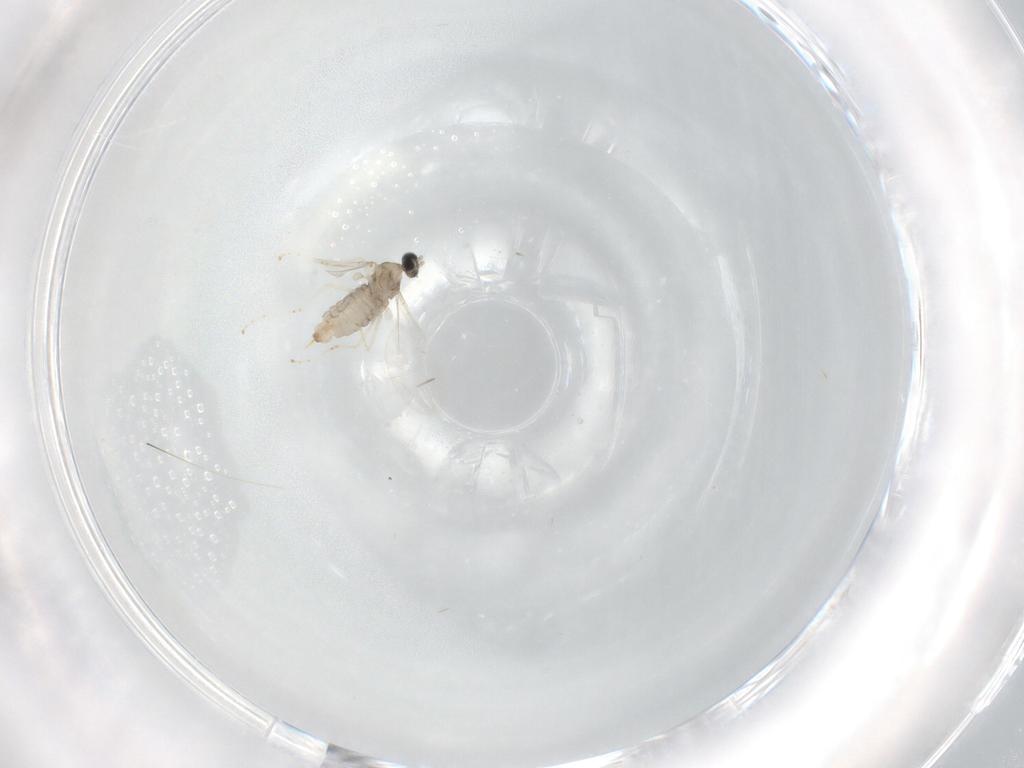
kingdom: Animalia
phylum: Arthropoda
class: Insecta
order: Diptera
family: Cecidomyiidae
